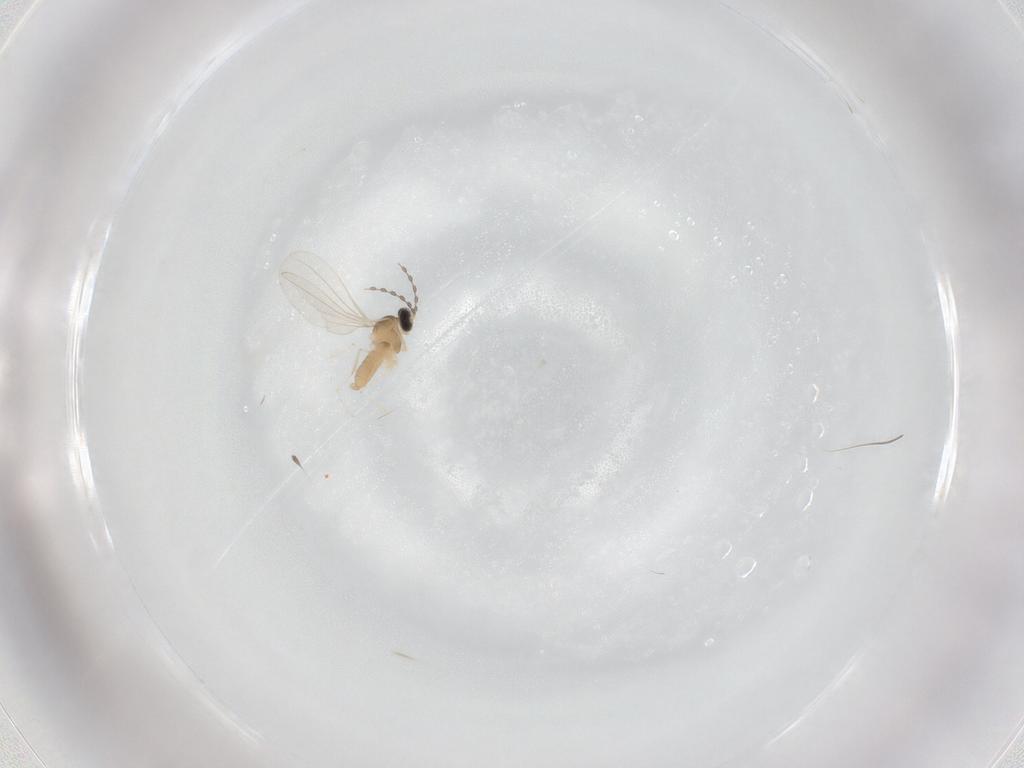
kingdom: Animalia
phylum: Arthropoda
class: Insecta
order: Diptera
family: Cecidomyiidae
